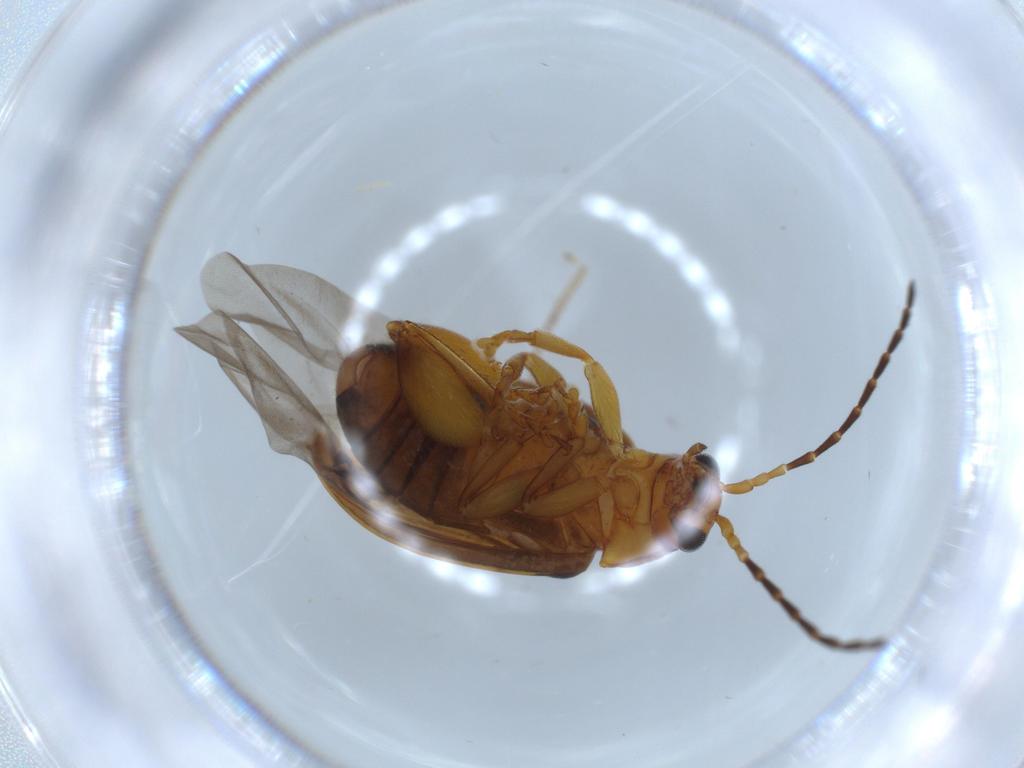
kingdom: Animalia
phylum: Arthropoda
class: Insecta
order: Coleoptera
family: Chrysomelidae
